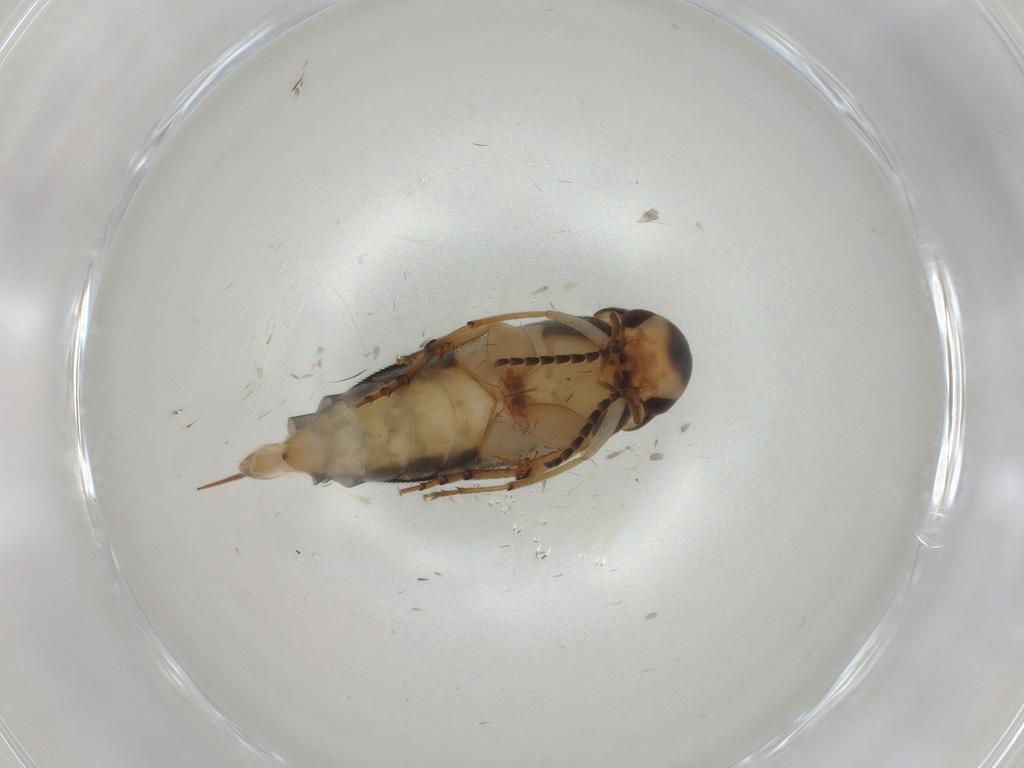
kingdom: Animalia
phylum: Arthropoda
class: Insecta
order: Coleoptera
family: Mordellidae
